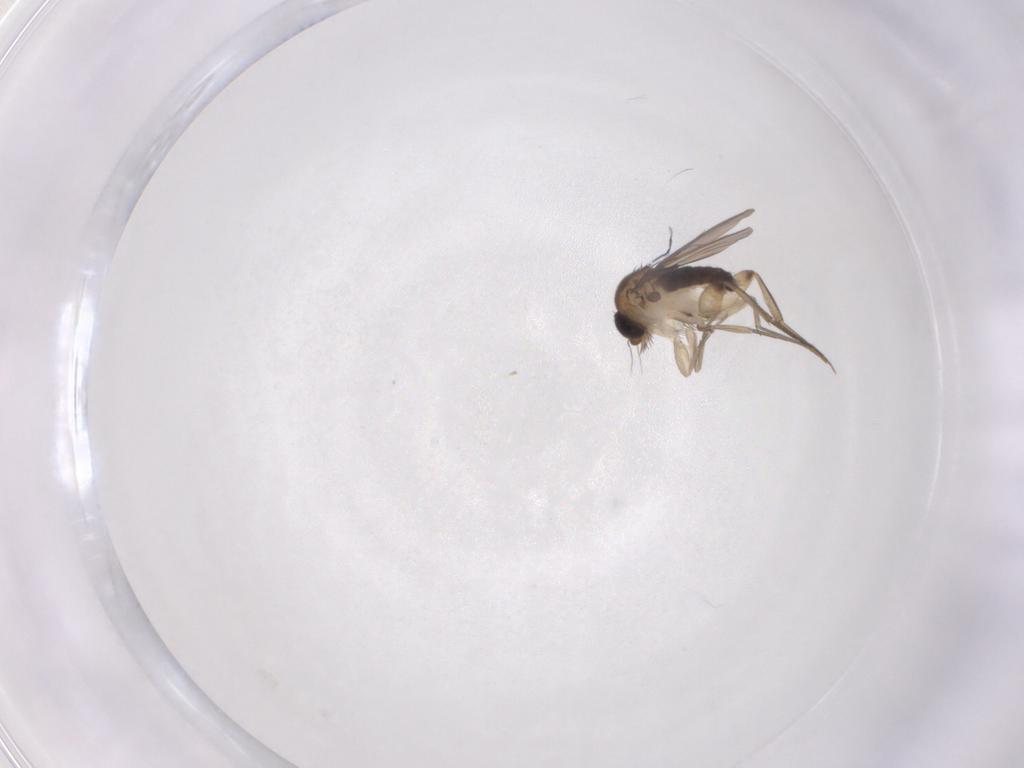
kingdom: Animalia
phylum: Arthropoda
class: Insecta
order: Diptera
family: Phoridae
